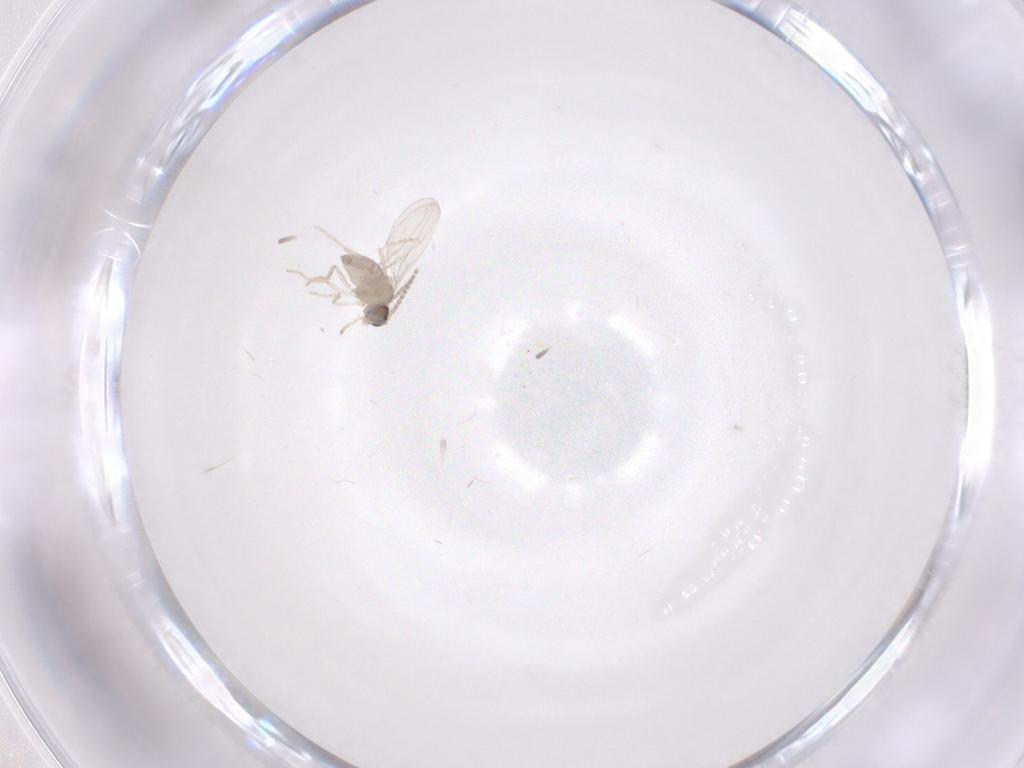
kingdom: Animalia
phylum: Arthropoda
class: Insecta
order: Diptera
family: Cecidomyiidae
